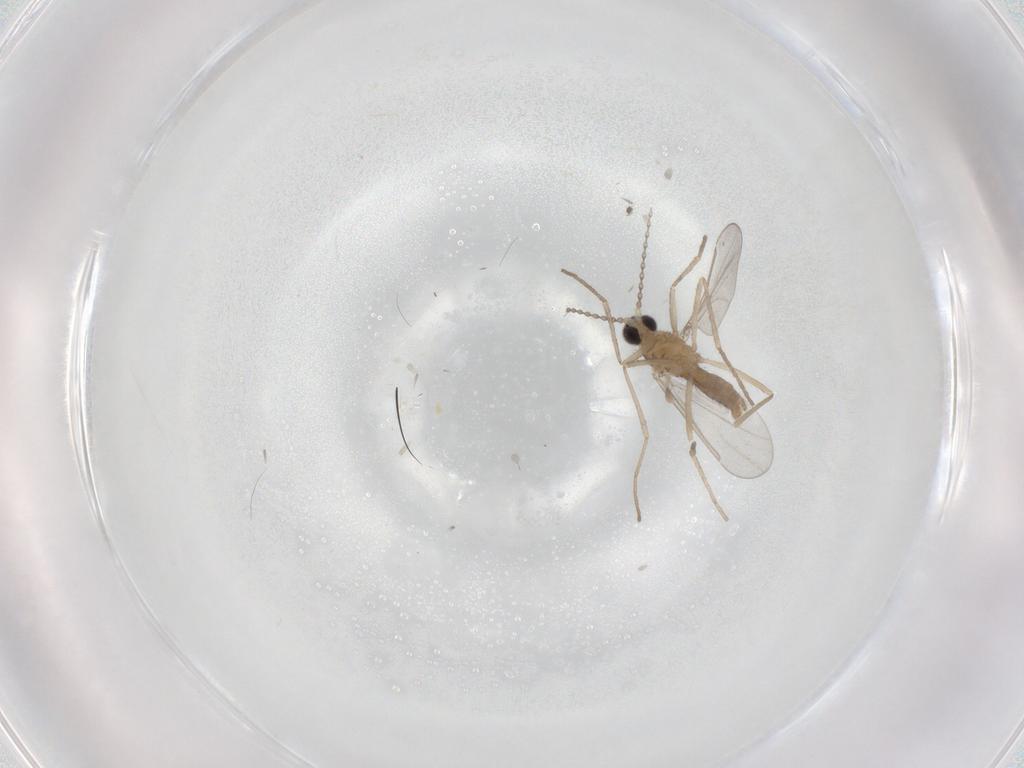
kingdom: Animalia
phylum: Arthropoda
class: Insecta
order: Diptera
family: Cecidomyiidae
